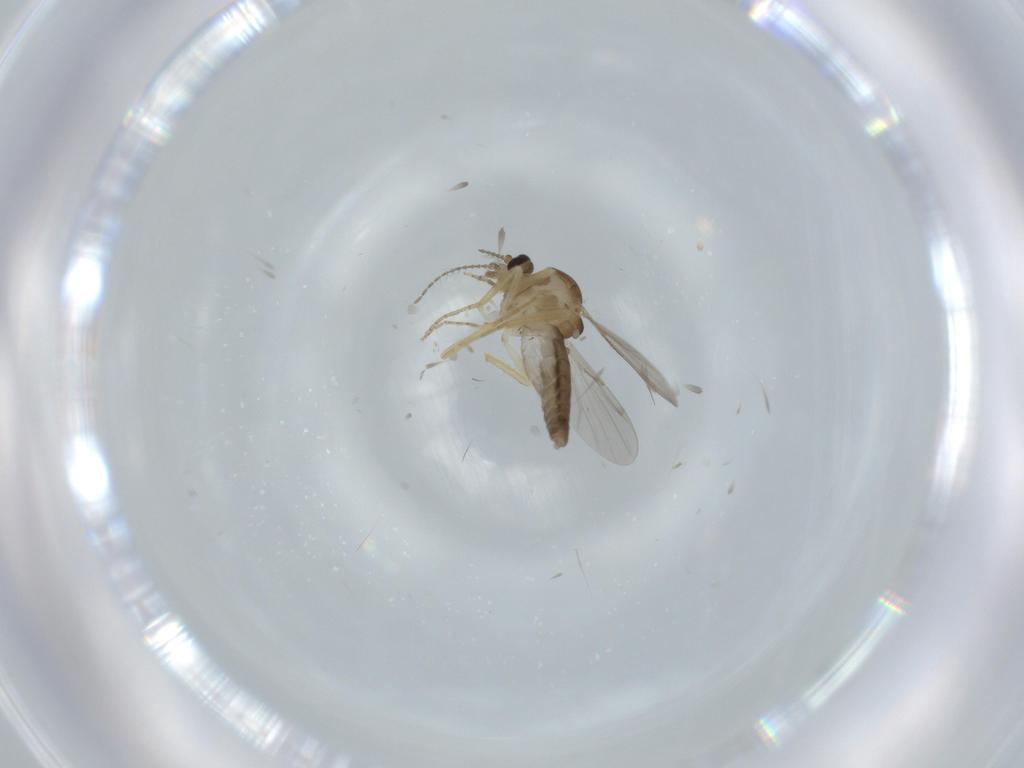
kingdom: Animalia
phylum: Arthropoda
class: Insecta
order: Diptera
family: Ceratopogonidae
